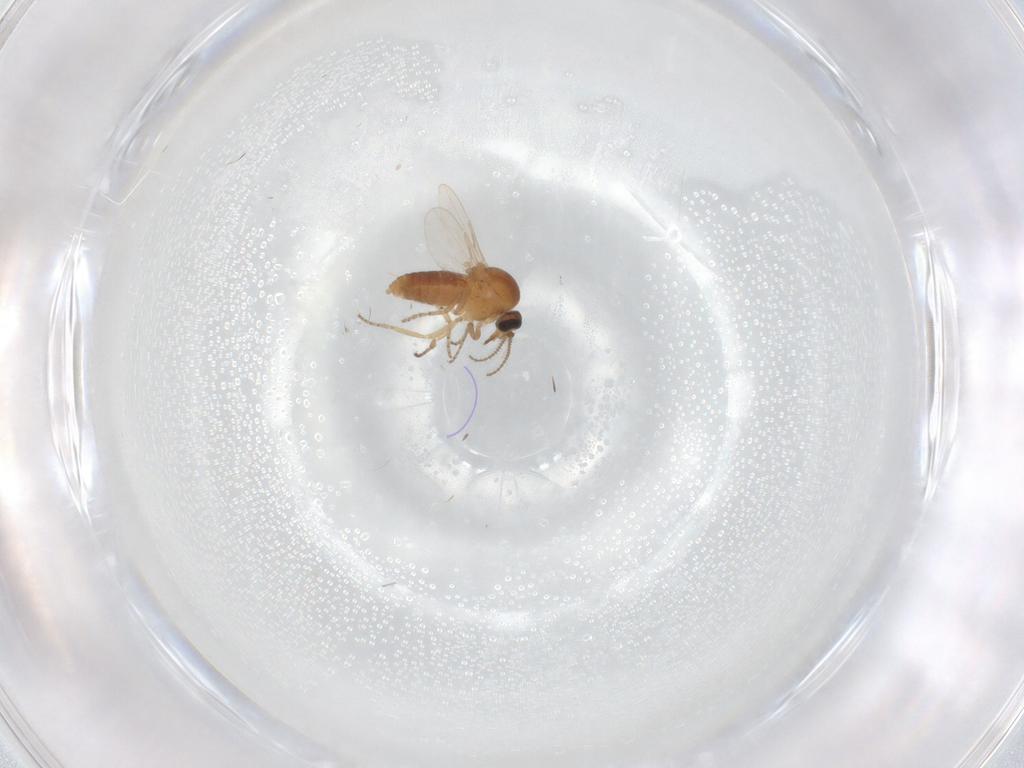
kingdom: Animalia
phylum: Arthropoda
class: Insecta
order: Diptera
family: Ceratopogonidae
